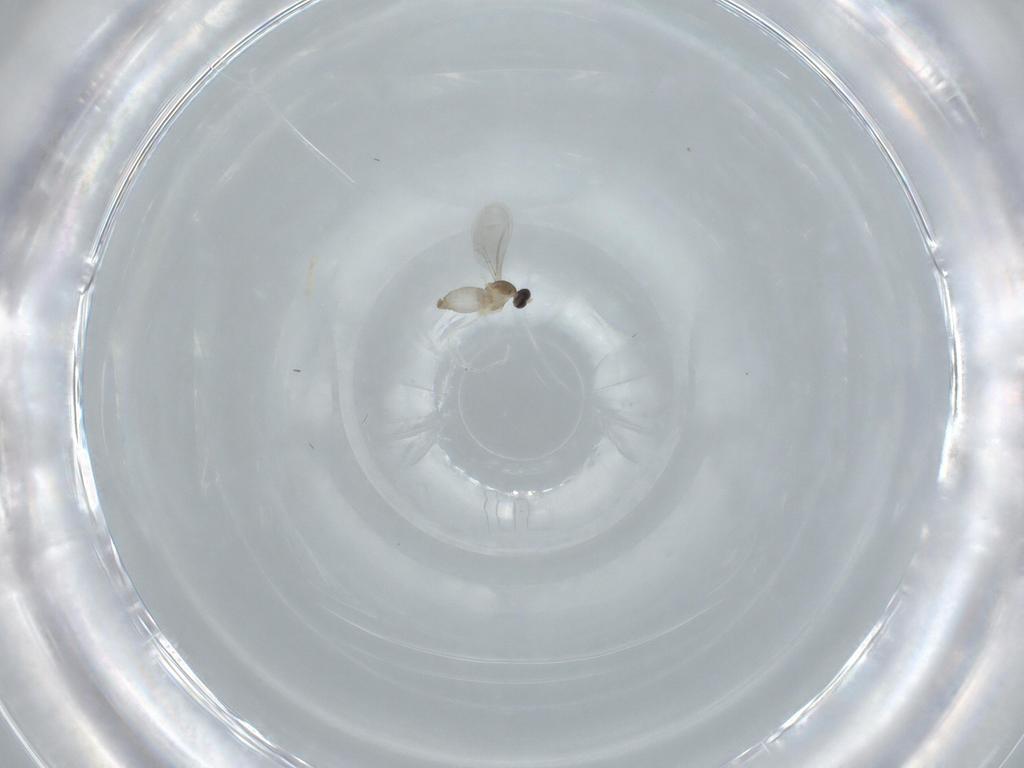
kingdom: Animalia
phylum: Arthropoda
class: Insecta
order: Diptera
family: Cecidomyiidae
